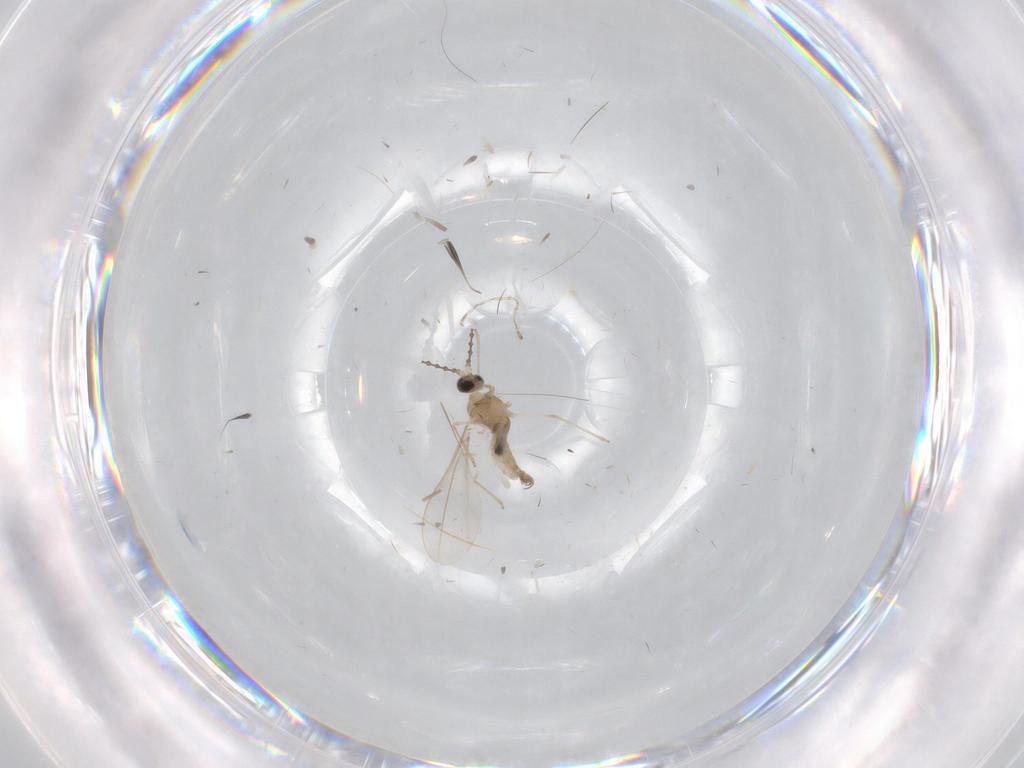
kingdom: Animalia
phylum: Arthropoda
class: Insecta
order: Diptera
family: Cecidomyiidae
